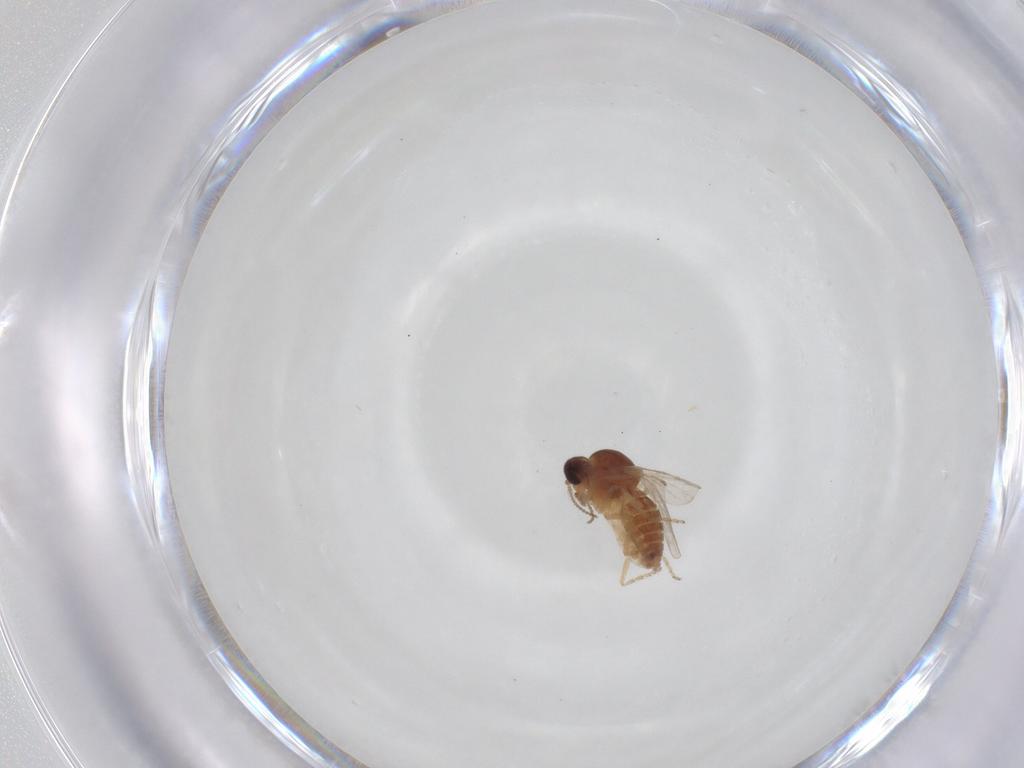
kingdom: Animalia
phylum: Arthropoda
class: Insecta
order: Diptera
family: Ceratopogonidae
